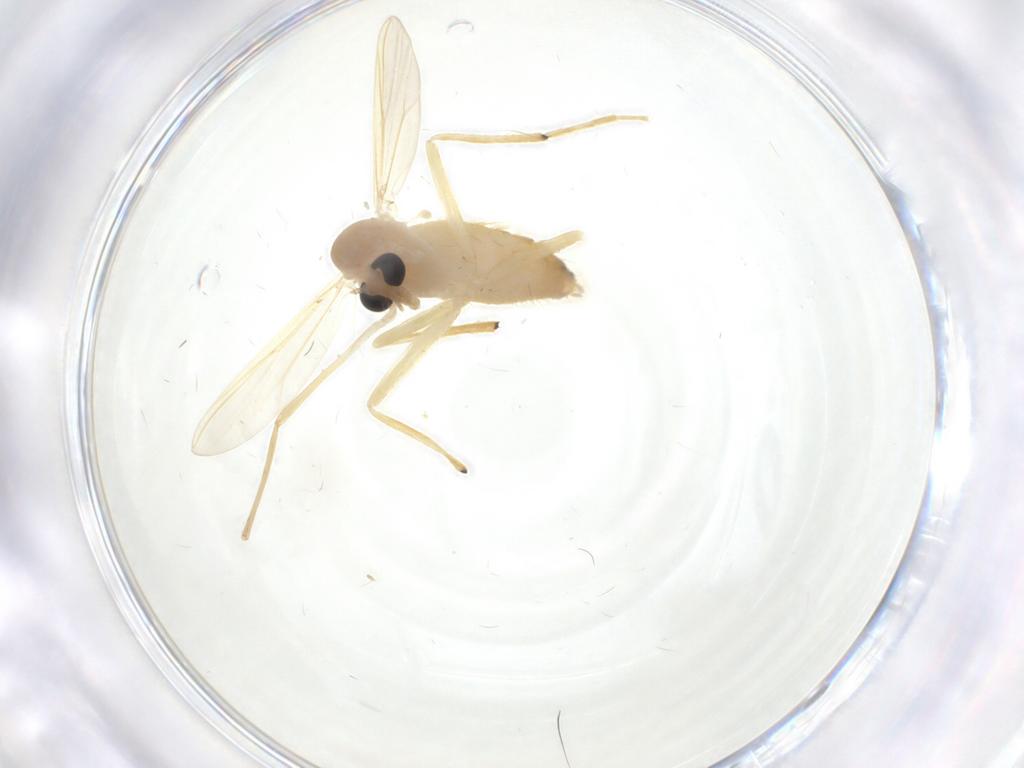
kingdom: Animalia
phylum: Arthropoda
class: Insecta
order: Diptera
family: Chironomidae
